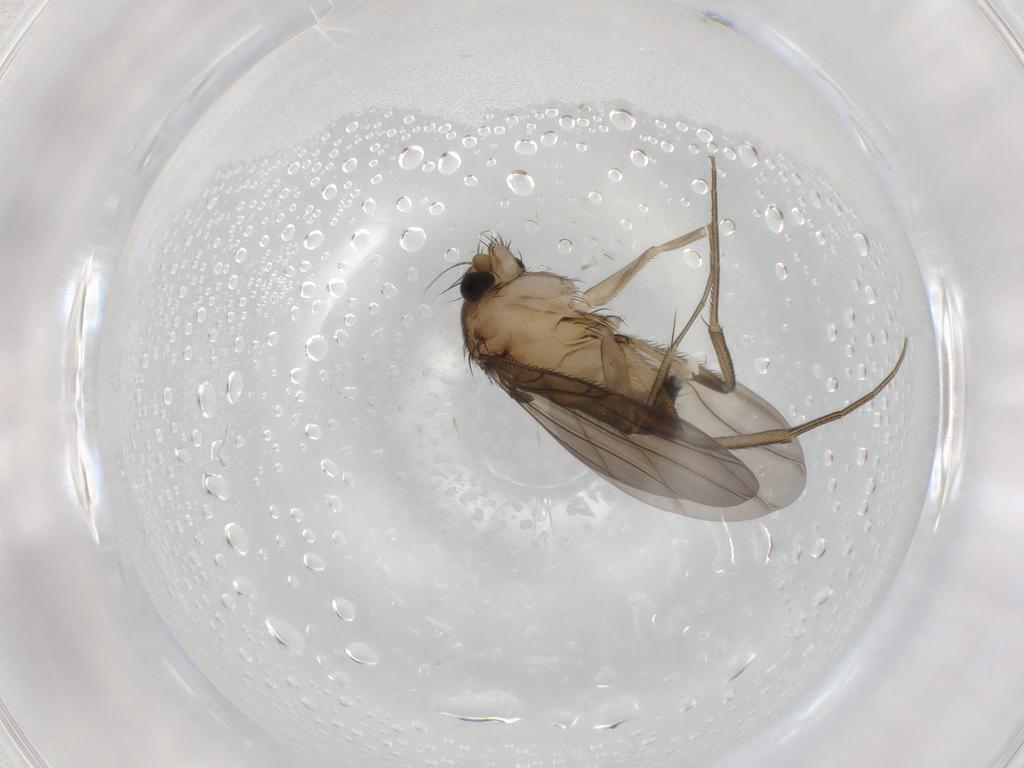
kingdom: Animalia
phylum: Arthropoda
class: Insecta
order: Diptera
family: Phoridae
